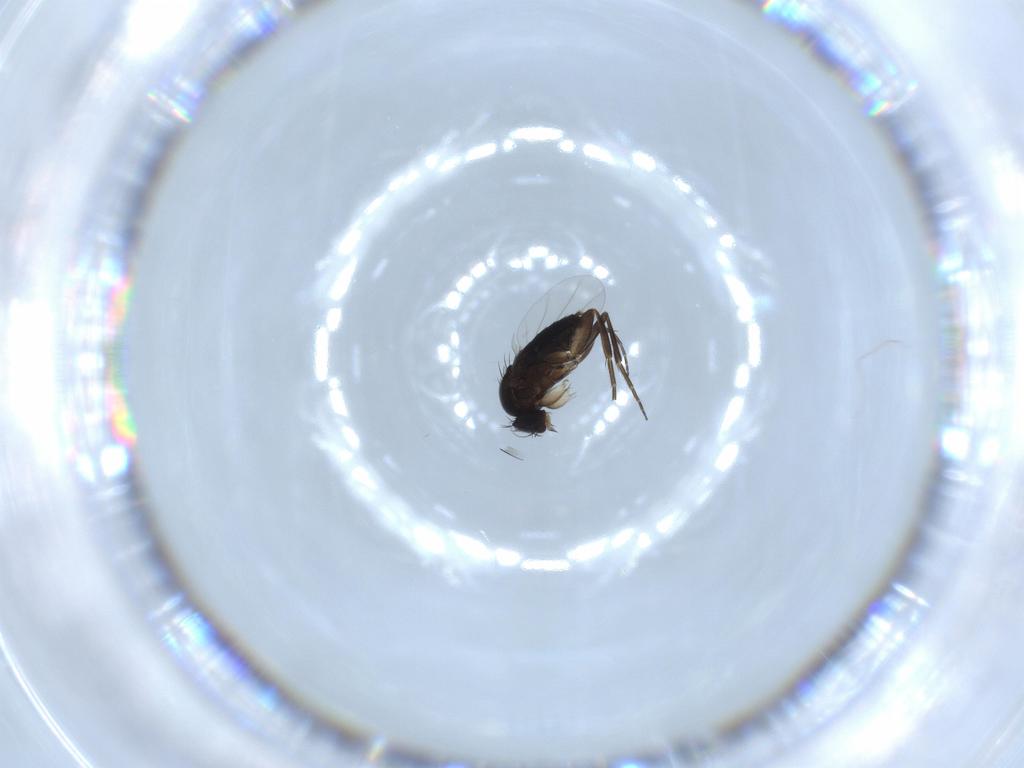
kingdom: Animalia
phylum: Arthropoda
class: Insecta
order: Diptera
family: Phoridae
